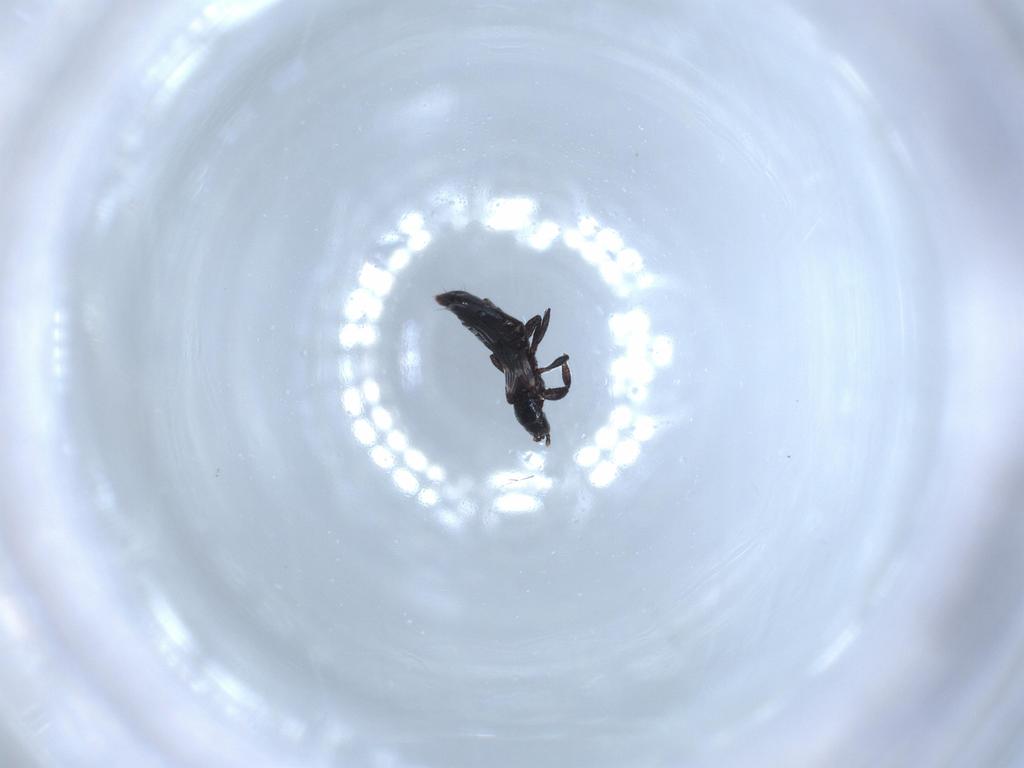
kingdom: Animalia
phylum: Arthropoda
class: Insecta
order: Thysanoptera
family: Aeolothripidae
